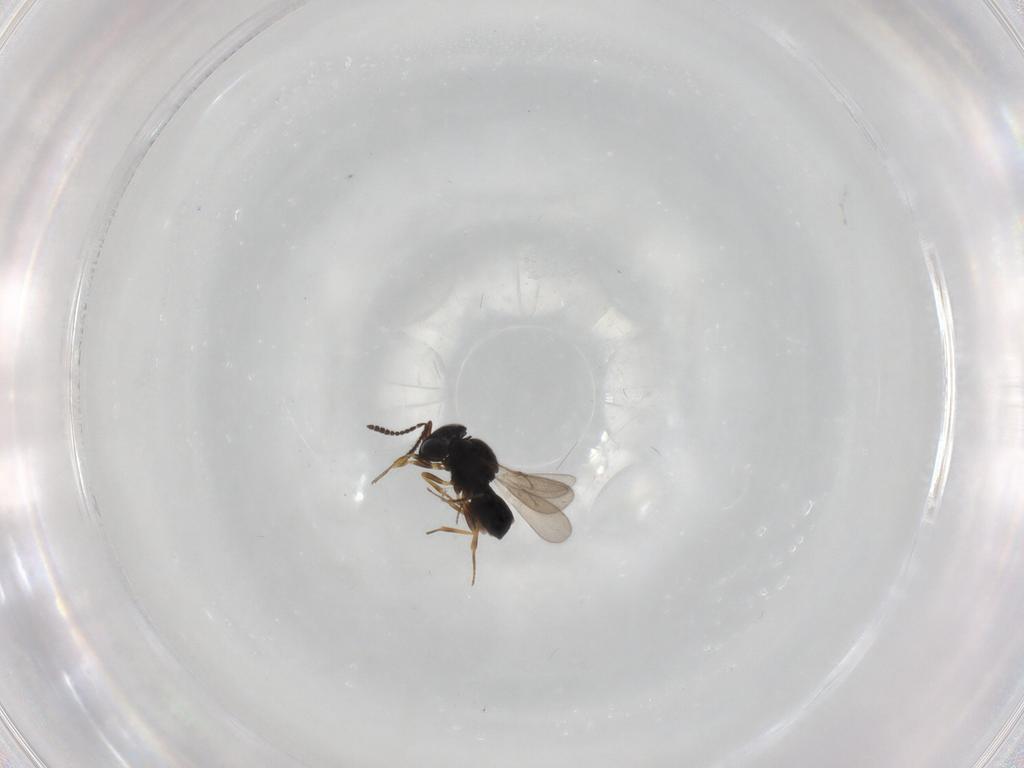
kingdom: Animalia
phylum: Arthropoda
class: Insecta
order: Hymenoptera
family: Scelionidae
